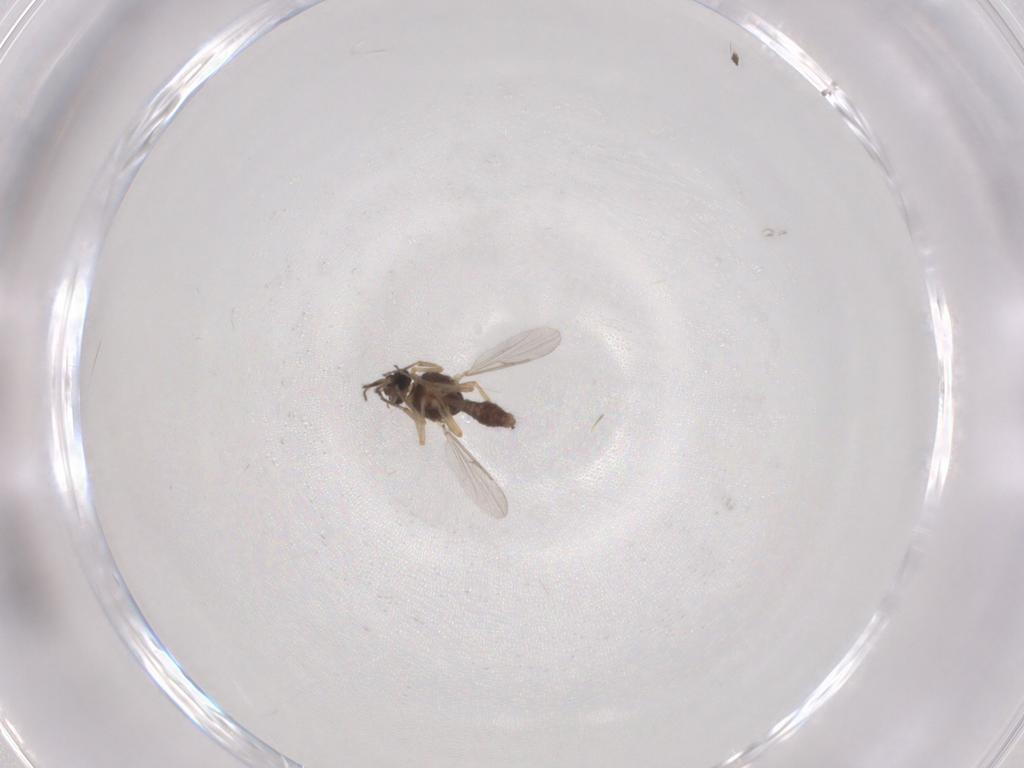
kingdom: Animalia
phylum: Arthropoda
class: Insecta
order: Diptera
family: Ceratopogonidae
